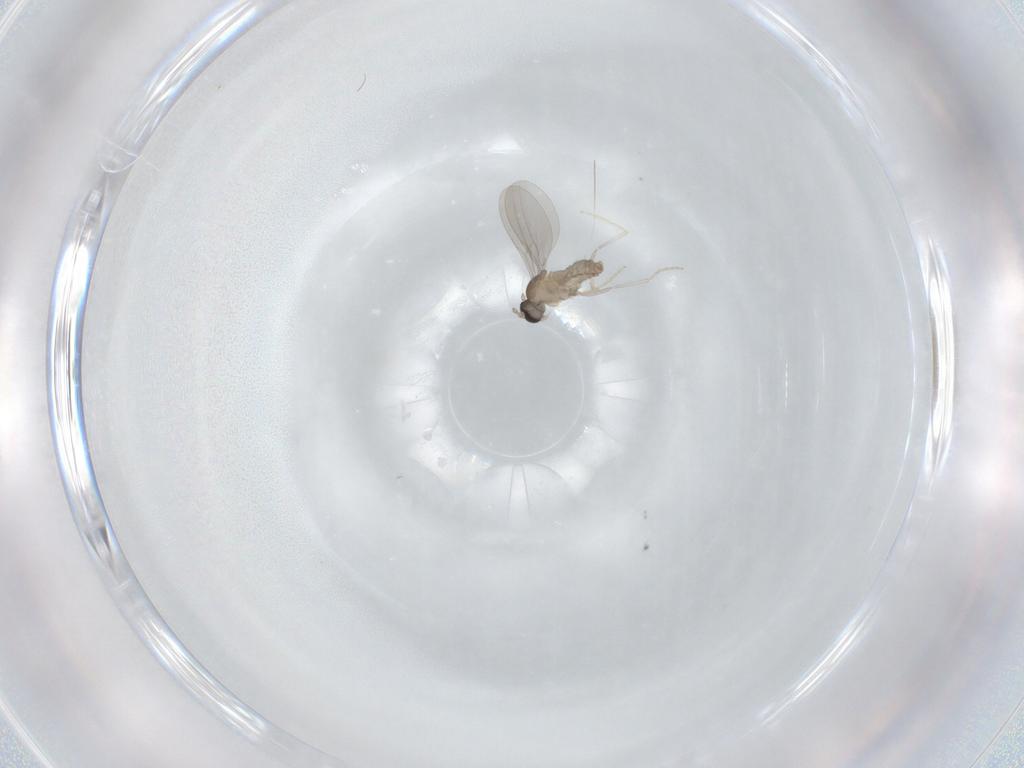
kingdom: Animalia
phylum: Arthropoda
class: Insecta
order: Diptera
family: Cecidomyiidae
